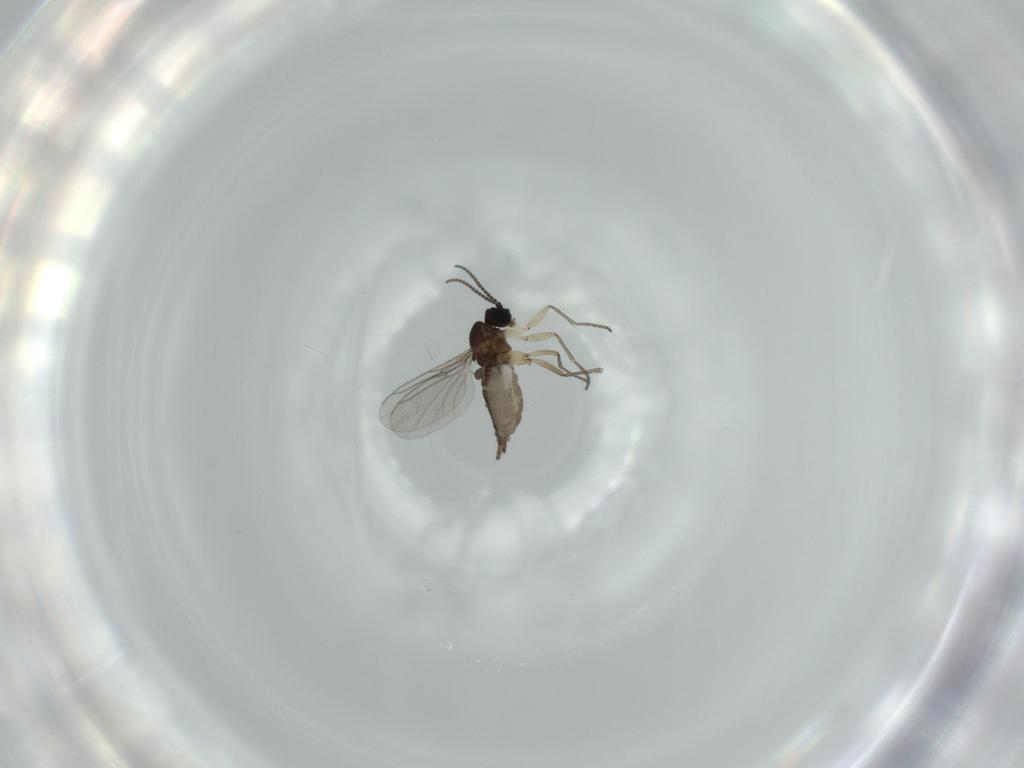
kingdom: Animalia
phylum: Arthropoda
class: Insecta
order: Diptera
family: Sciaridae
